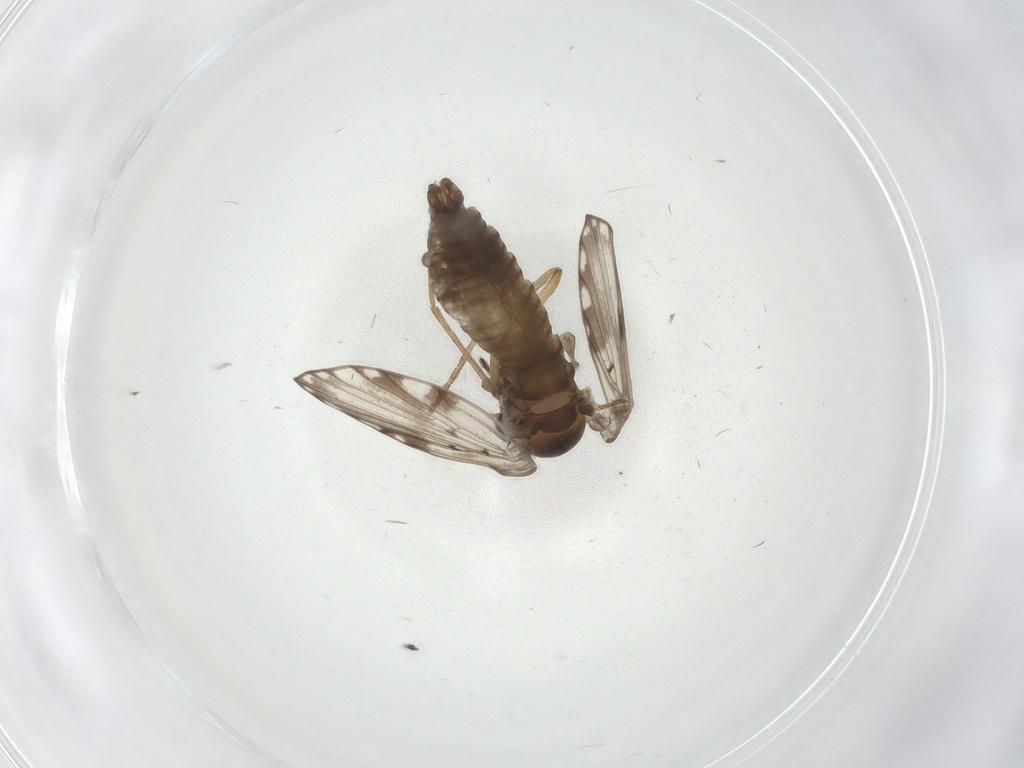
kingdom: Animalia
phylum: Arthropoda
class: Insecta
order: Diptera
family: Psychodidae
